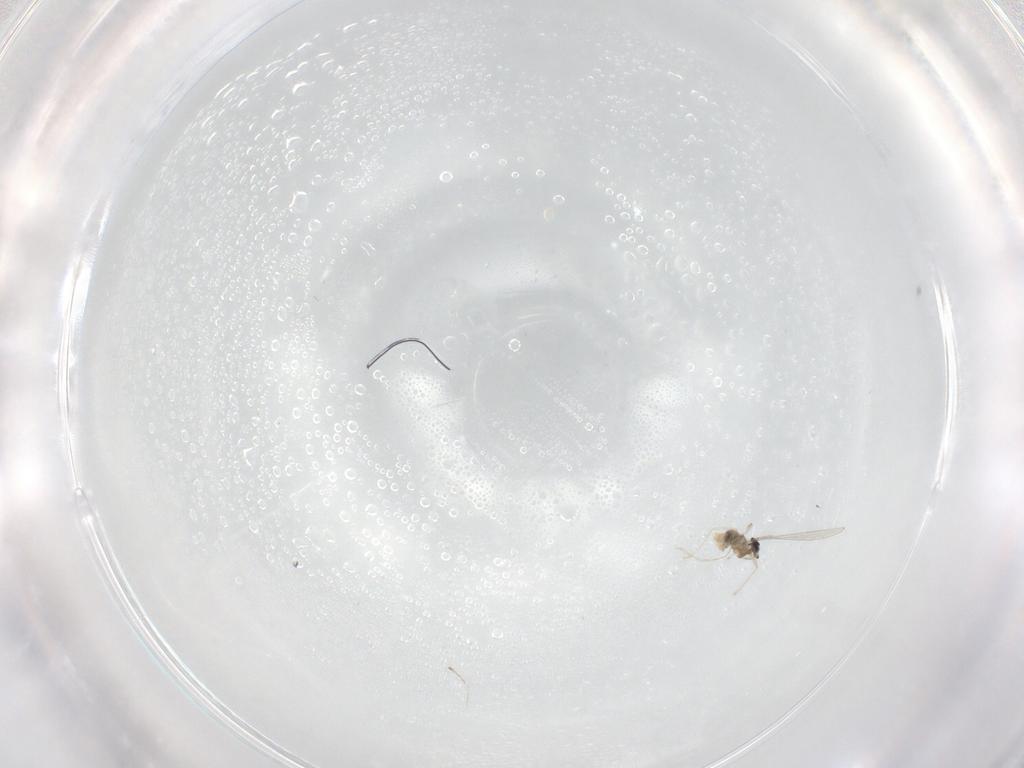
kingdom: Animalia
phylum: Arthropoda
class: Insecta
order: Diptera
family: Cecidomyiidae
